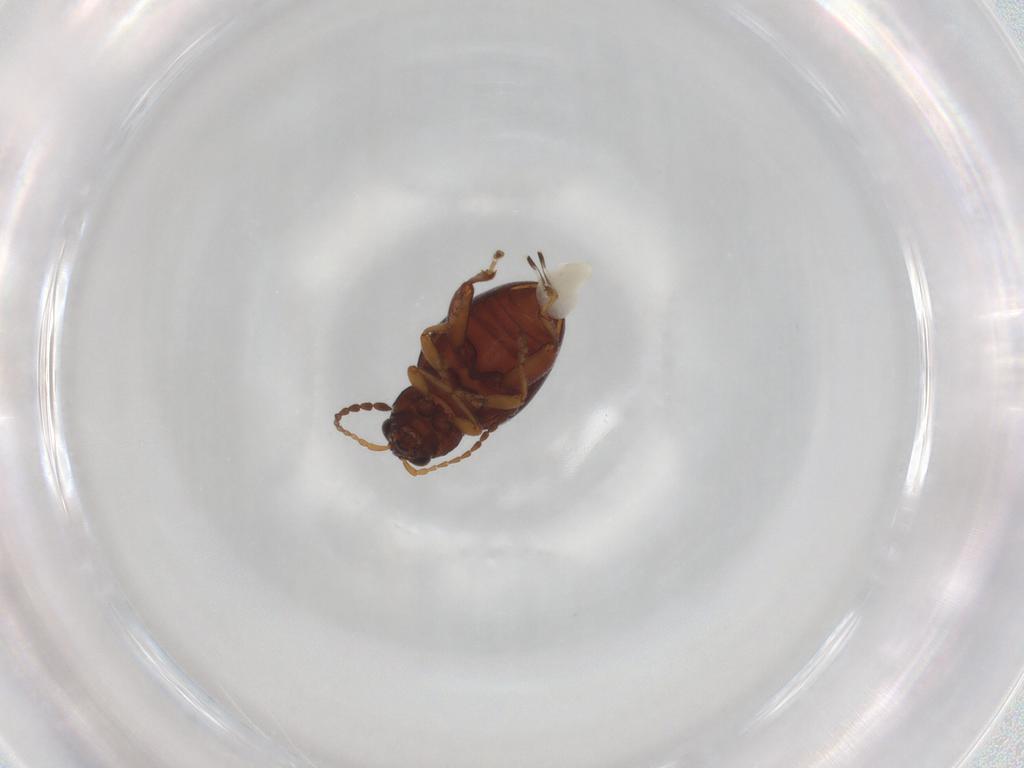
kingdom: Animalia
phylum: Arthropoda
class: Insecta
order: Coleoptera
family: Chrysomelidae
